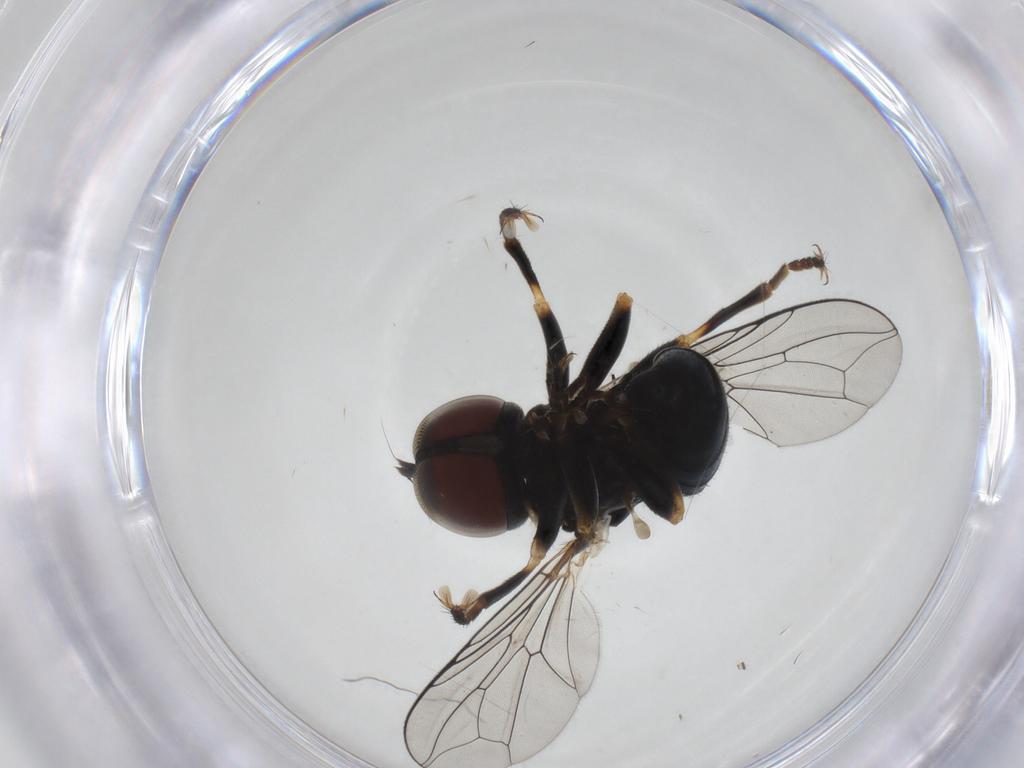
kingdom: Animalia
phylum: Arthropoda
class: Insecta
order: Diptera
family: Pipunculidae
